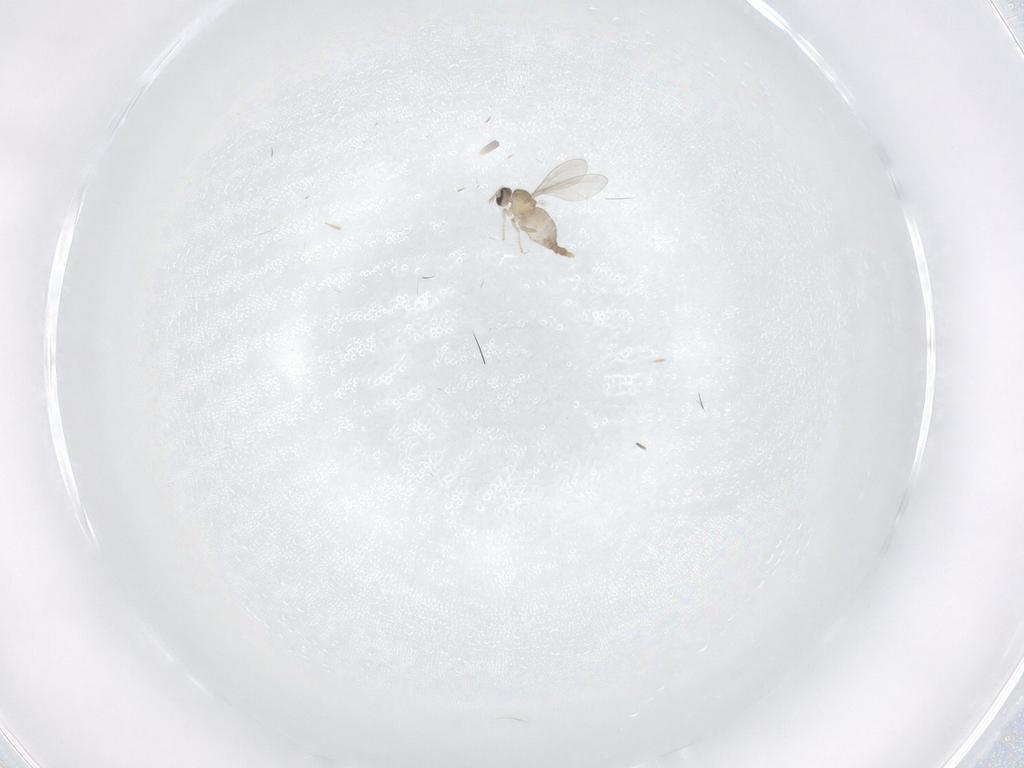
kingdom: Animalia
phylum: Arthropoda
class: Insecta
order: Diptera
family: Cecidomyiidae
